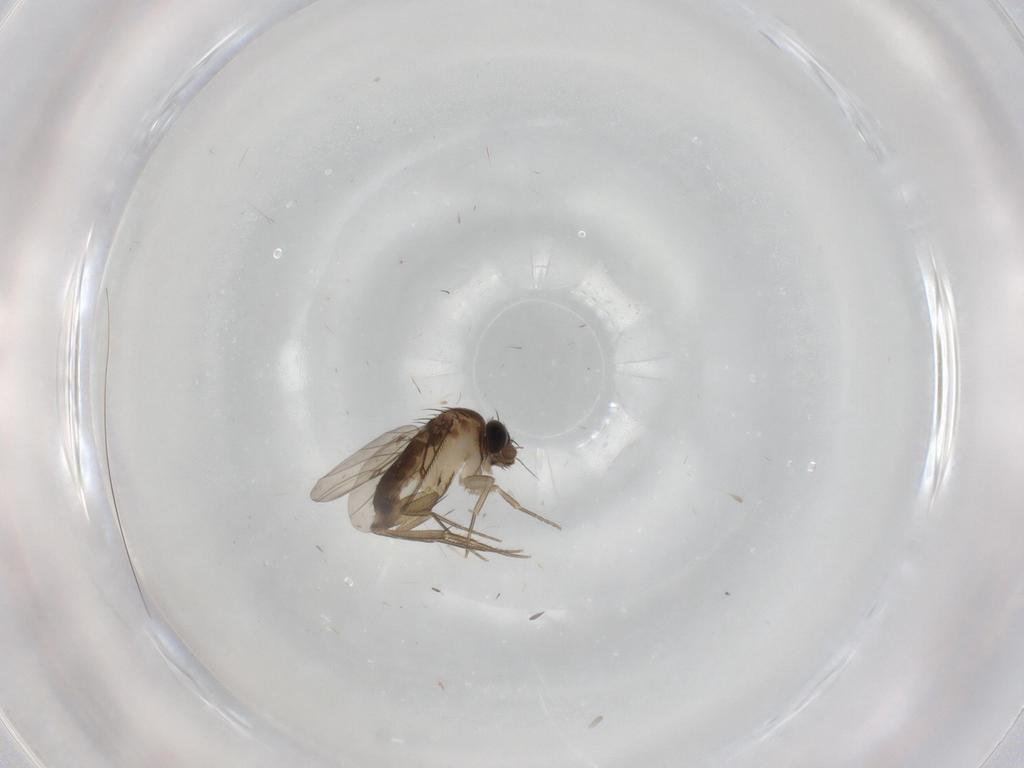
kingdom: Animalia
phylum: Arthropoda
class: Insecta
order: Diptera
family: Phoridae
